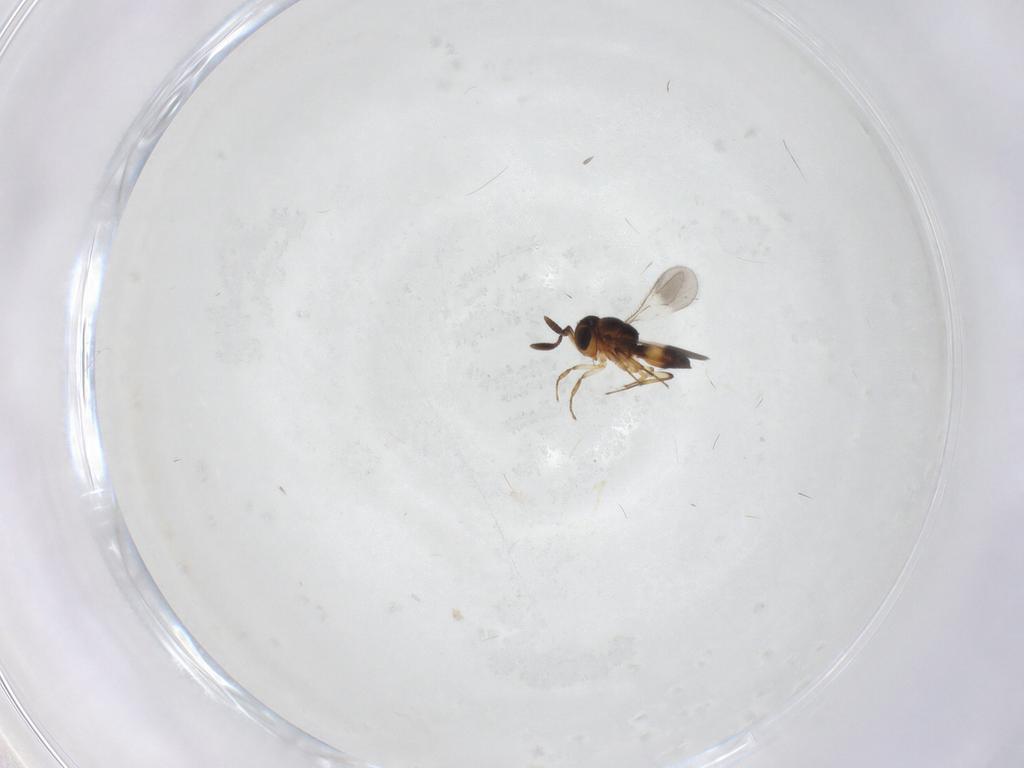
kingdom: Animalia
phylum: Arthropoda
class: Insecta
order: Hymenoptera
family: Scelionidae
